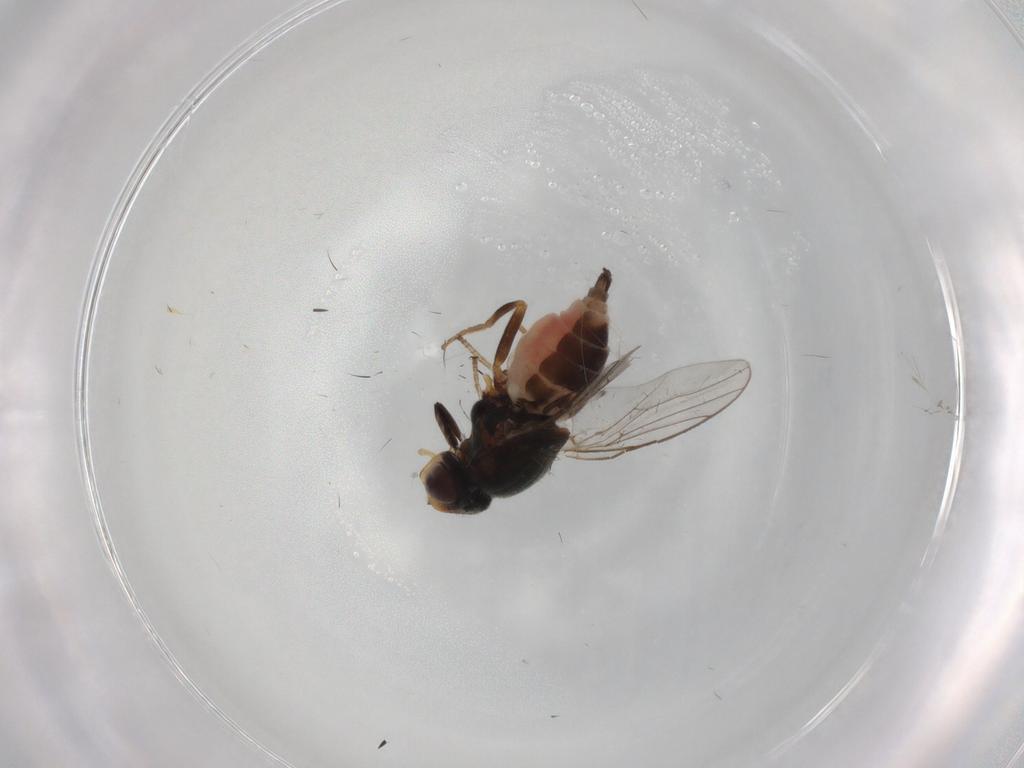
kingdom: Animalia
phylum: Arthropoda
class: Insecta
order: Diptera
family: Chloropidae
